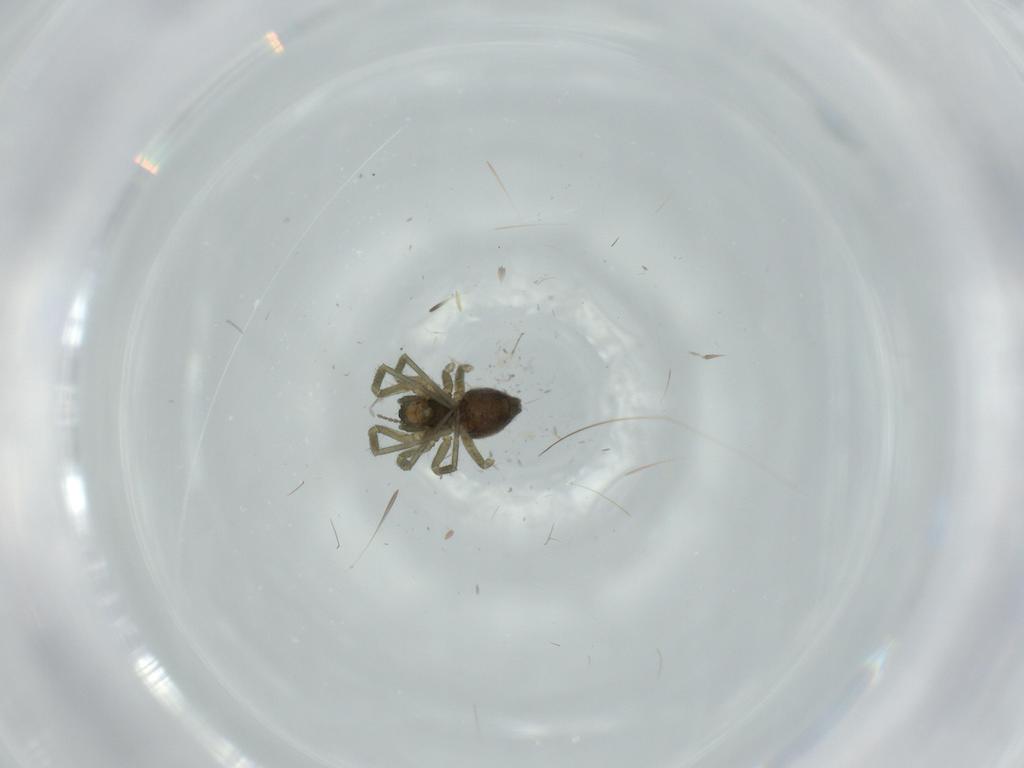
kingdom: Animalia
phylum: Arthropoda
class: Arachnida
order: Araneae
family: Linyphiidae
